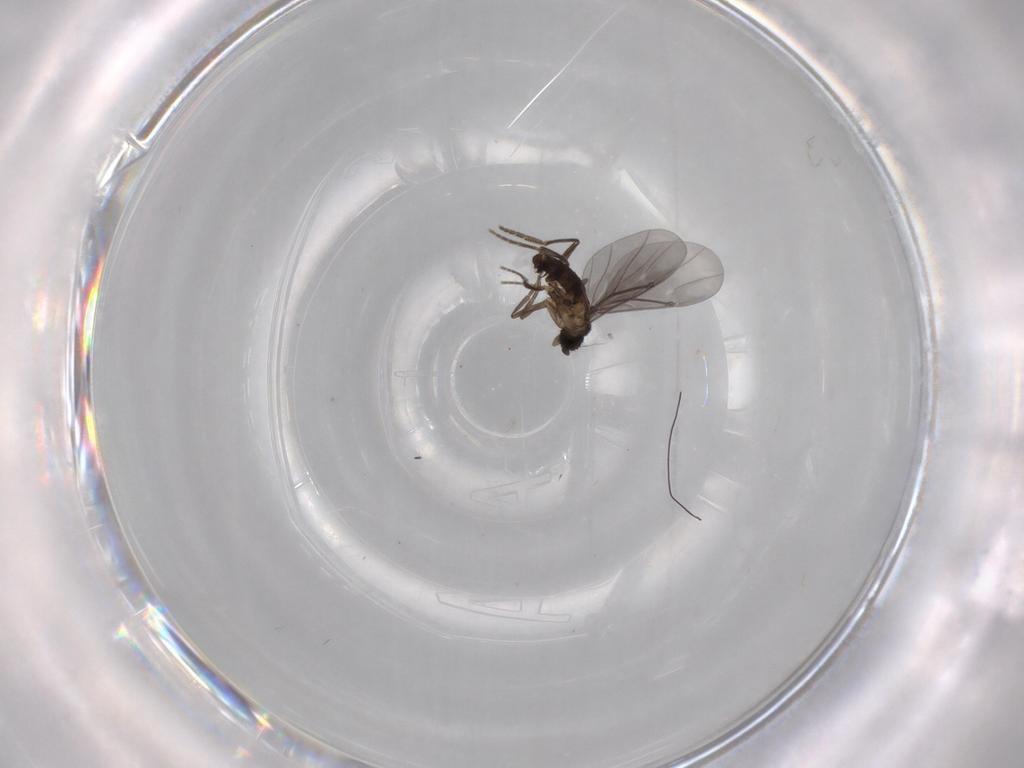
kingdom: Animalia
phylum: Arthropoda
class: Insecta
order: Diptera
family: Phoridae
